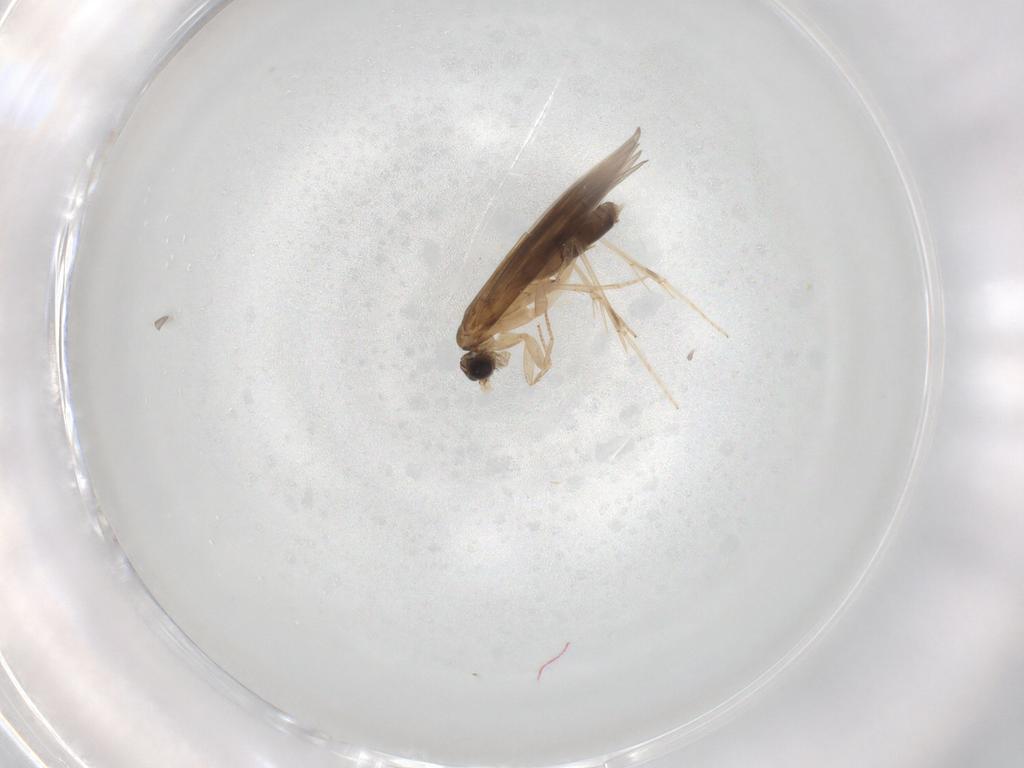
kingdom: Animalia
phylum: Arthropoda
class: Insecta
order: Trichoptera
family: Hydroptilidae
